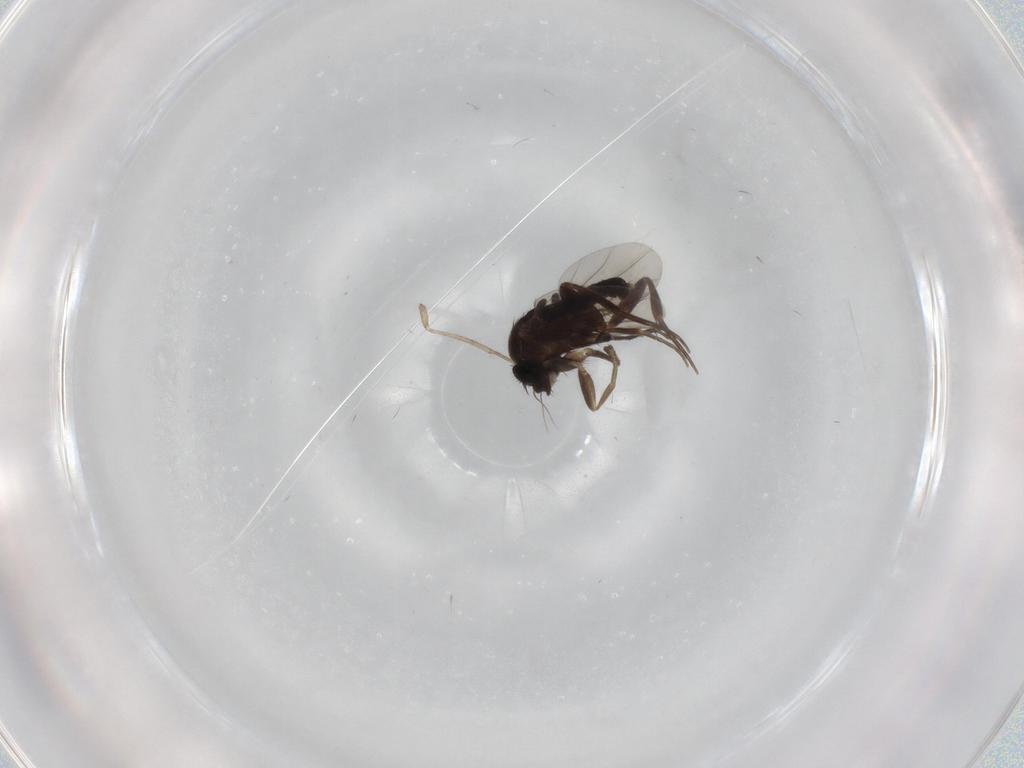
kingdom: Animalia
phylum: Arthropoda
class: Insecta
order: Diptera
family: Phoridae
